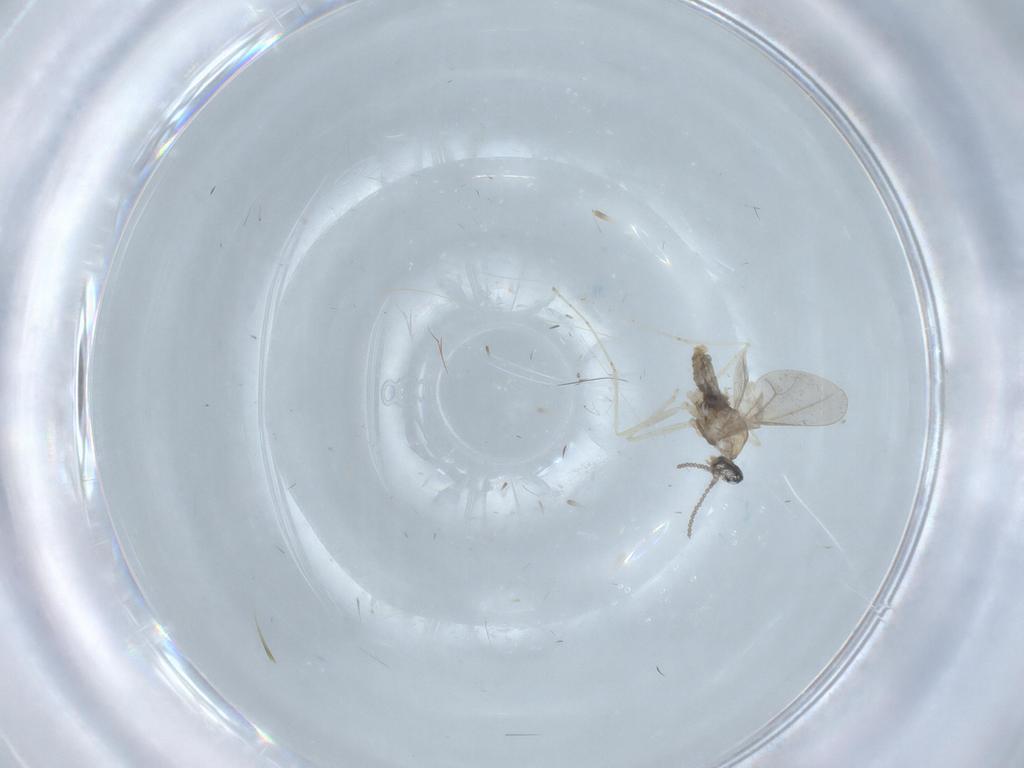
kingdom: Animalia
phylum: Arthropoda
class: Insecta
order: Diptera
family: Cecidomyiidae
